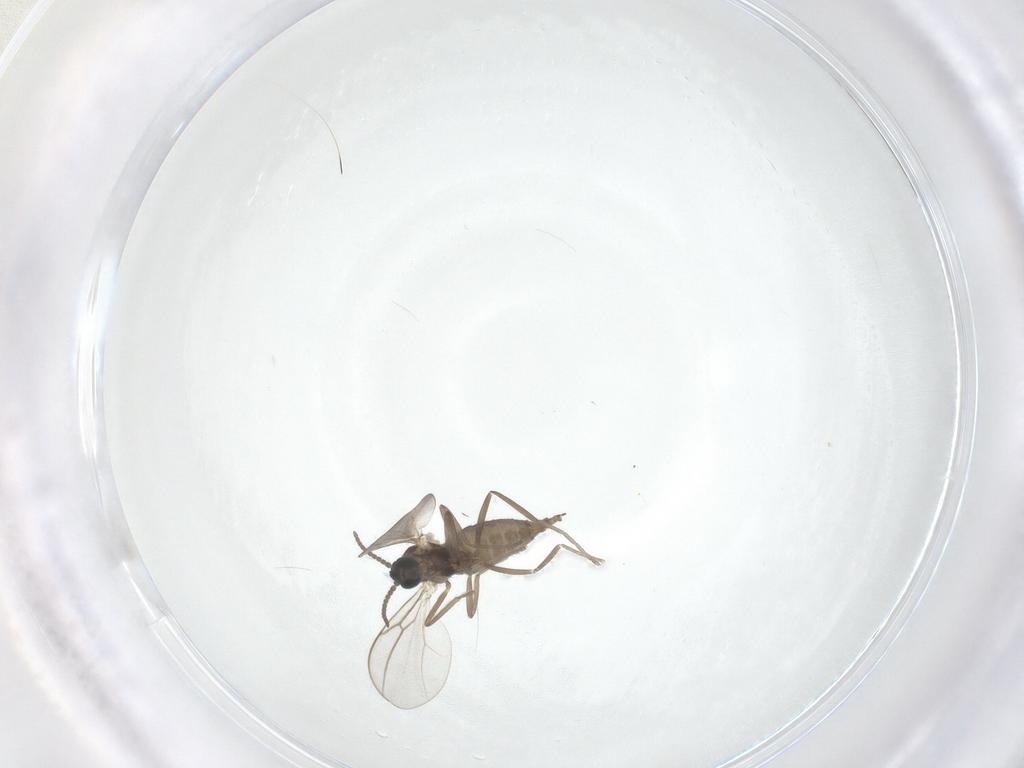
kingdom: Animalia
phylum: Arthropoda
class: Insecta
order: Diptera
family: Cecidomyiidae
